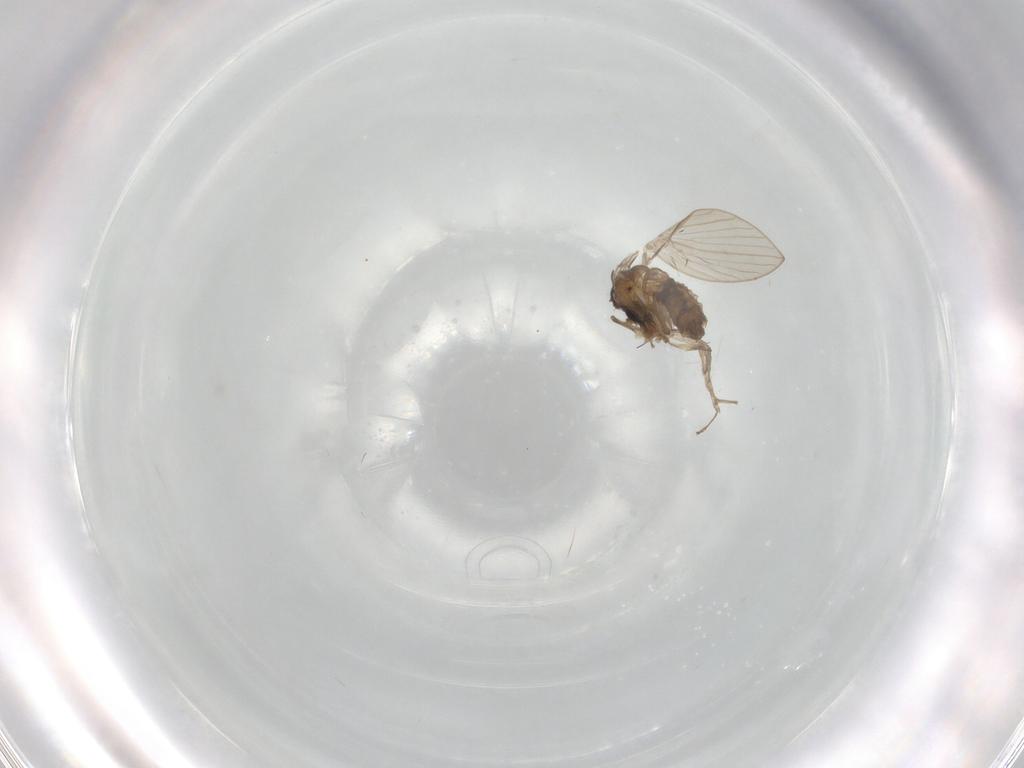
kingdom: Animalia
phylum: Arthropoda
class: Insecta
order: Diptera
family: Psychodidae
